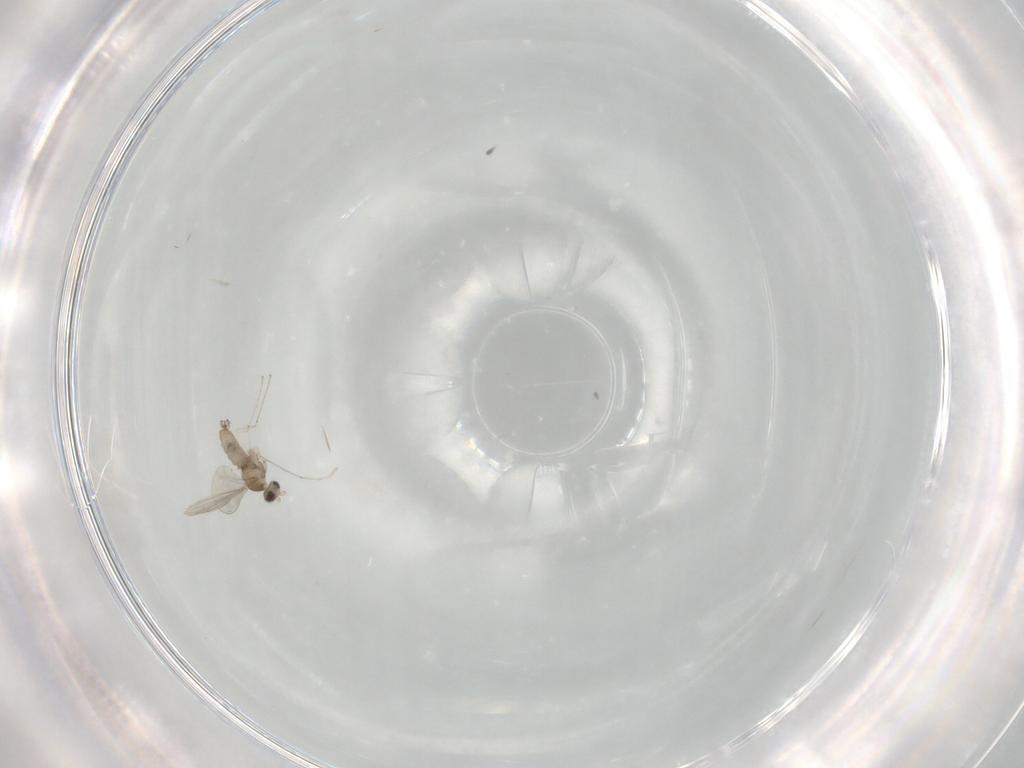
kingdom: Animalia
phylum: Arthropoda
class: Insecta
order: Diptera
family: Cecidomyiidae
